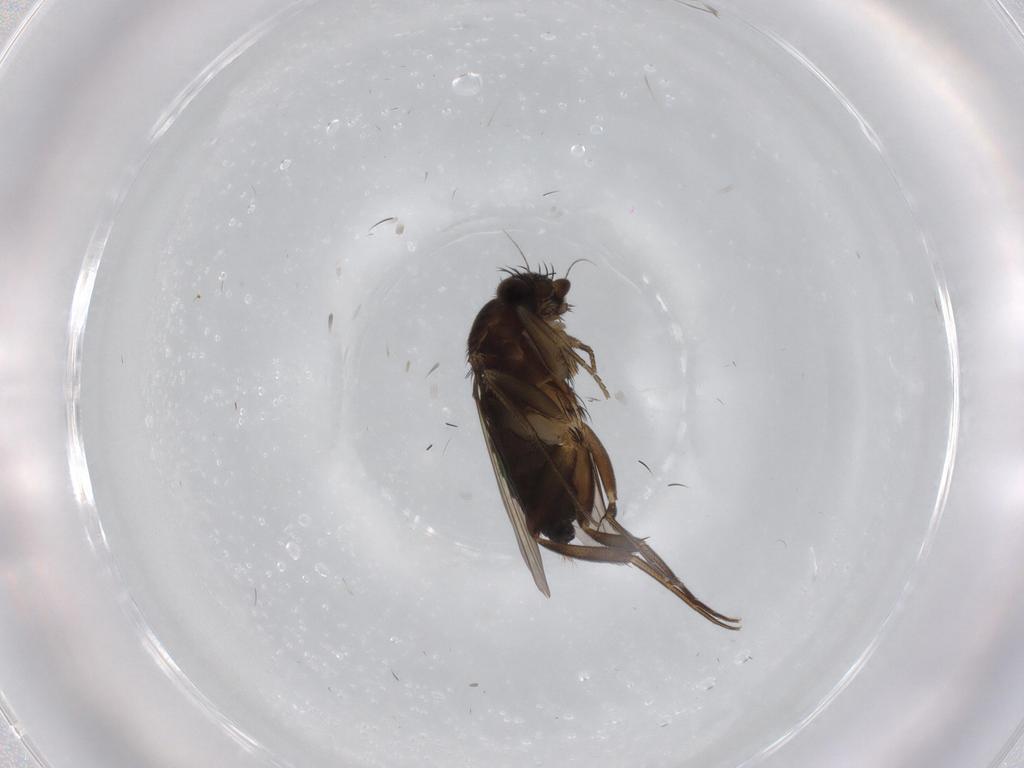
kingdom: Animalia
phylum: Arthropoda
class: Insecta
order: Diptera
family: Phoridae
